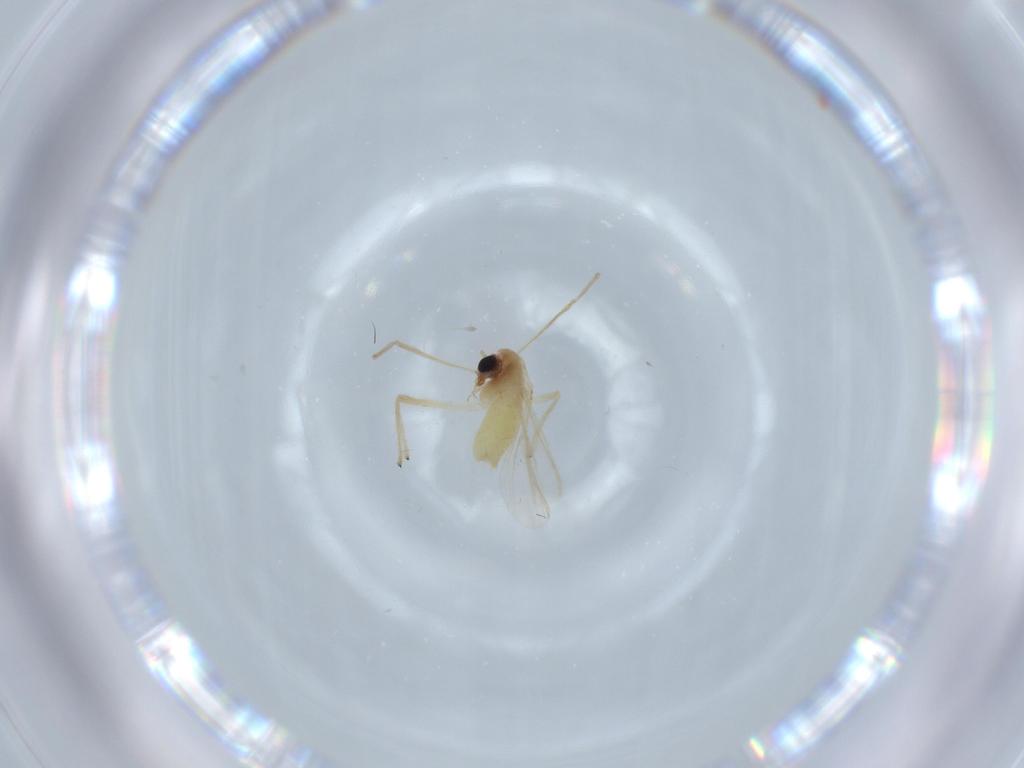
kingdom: Animalia
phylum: Arthropoda
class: Insecta
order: Diptera
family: Chironomidae
